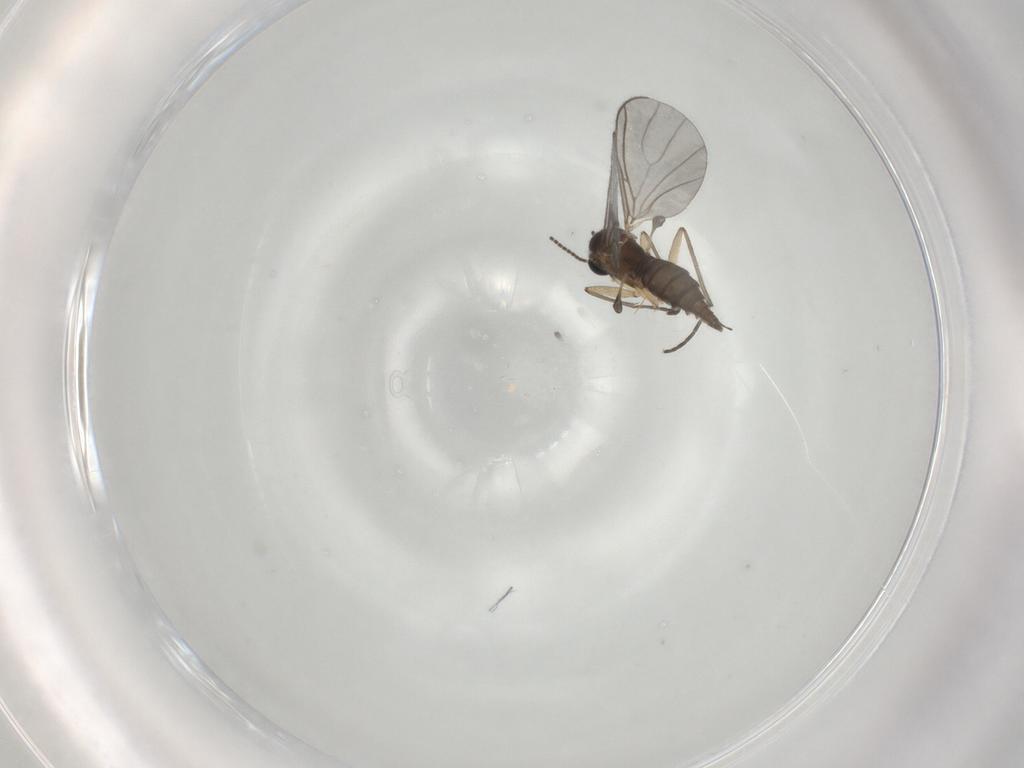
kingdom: Animalia
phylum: Arthropoda
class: Insecta
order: Diptera
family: Sciaridae
